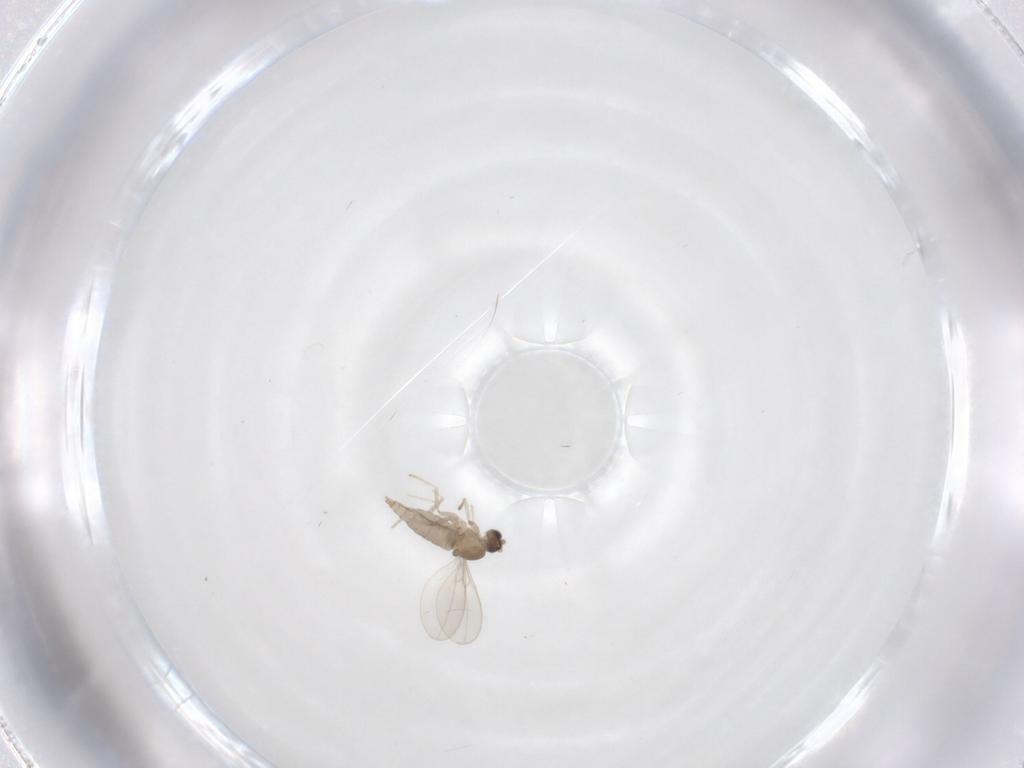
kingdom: Animalia
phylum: Arthropoda
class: Insecta
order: Diptera
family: Cecidomyiidae
